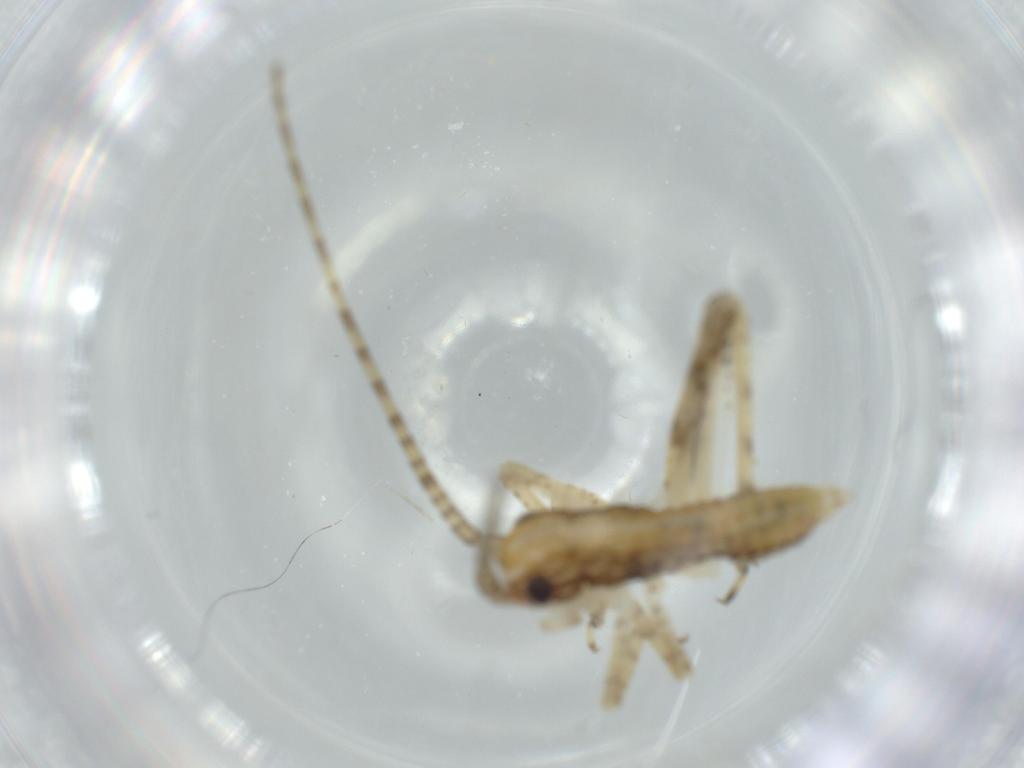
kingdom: Animalia
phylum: Arthropoda
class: Insecta
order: Orthoptera
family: Gryllidae
